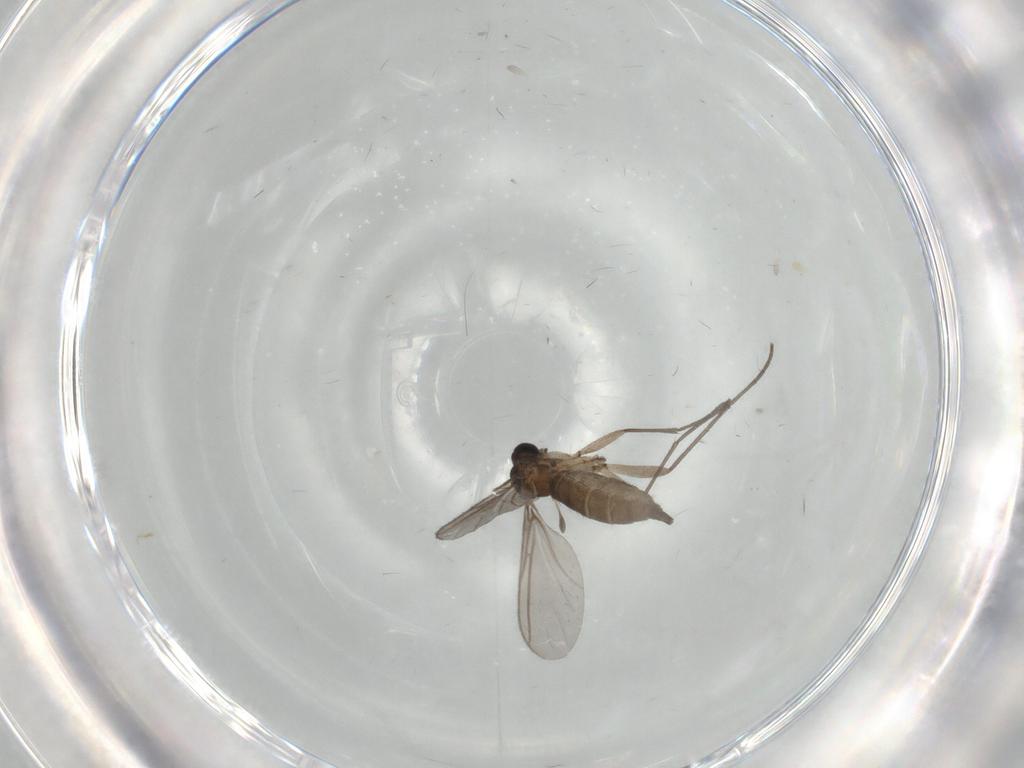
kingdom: Animalia
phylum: Arthropoda
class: Insecta
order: Diptera
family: Sciaridae
